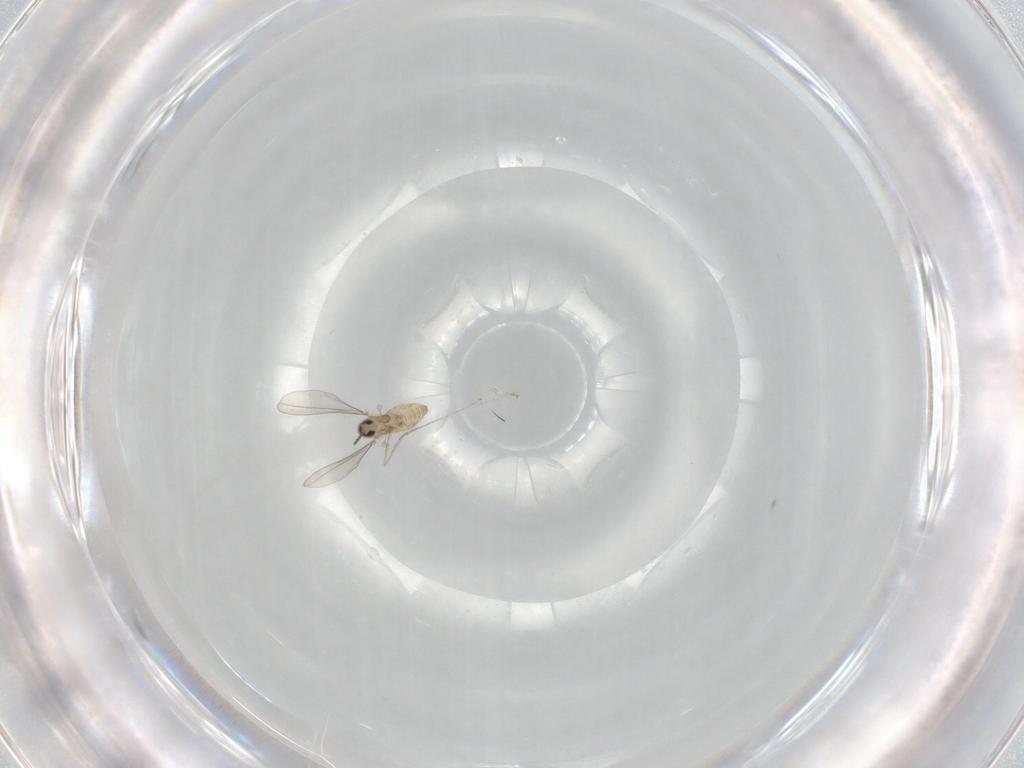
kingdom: Animalia
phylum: Arthropoda
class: Insecta
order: Diptera
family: Cecidomyiidae
